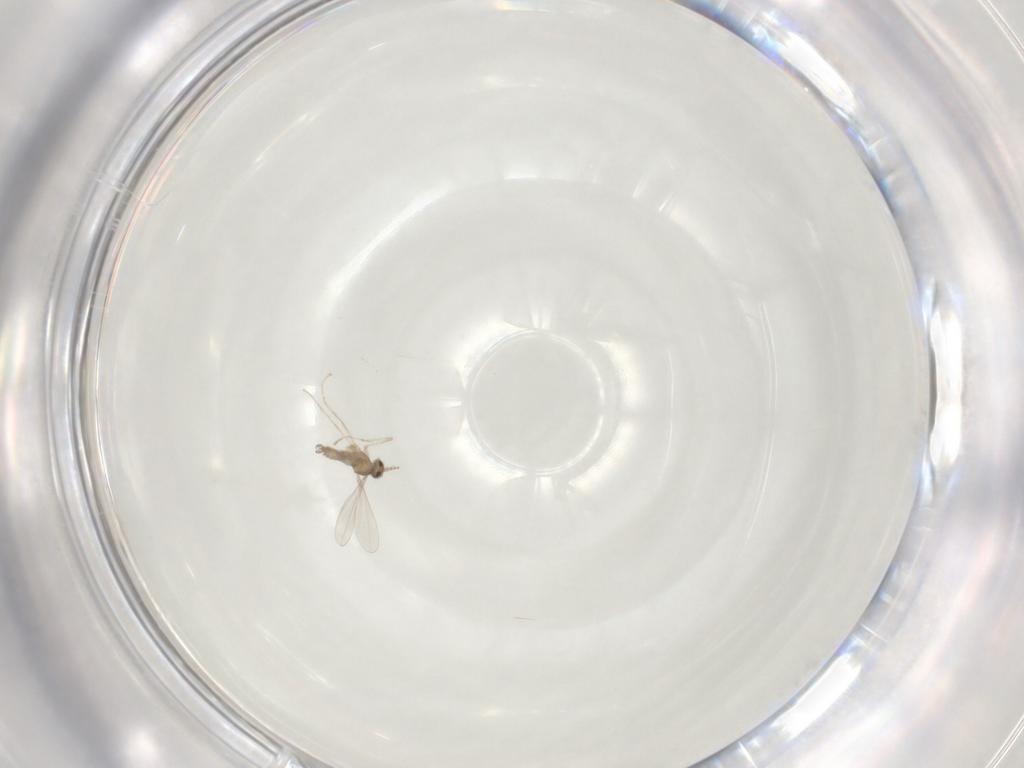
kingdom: Animalia
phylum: Arthropoda
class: Insecta
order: Diptera
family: Cecidomyiidae
